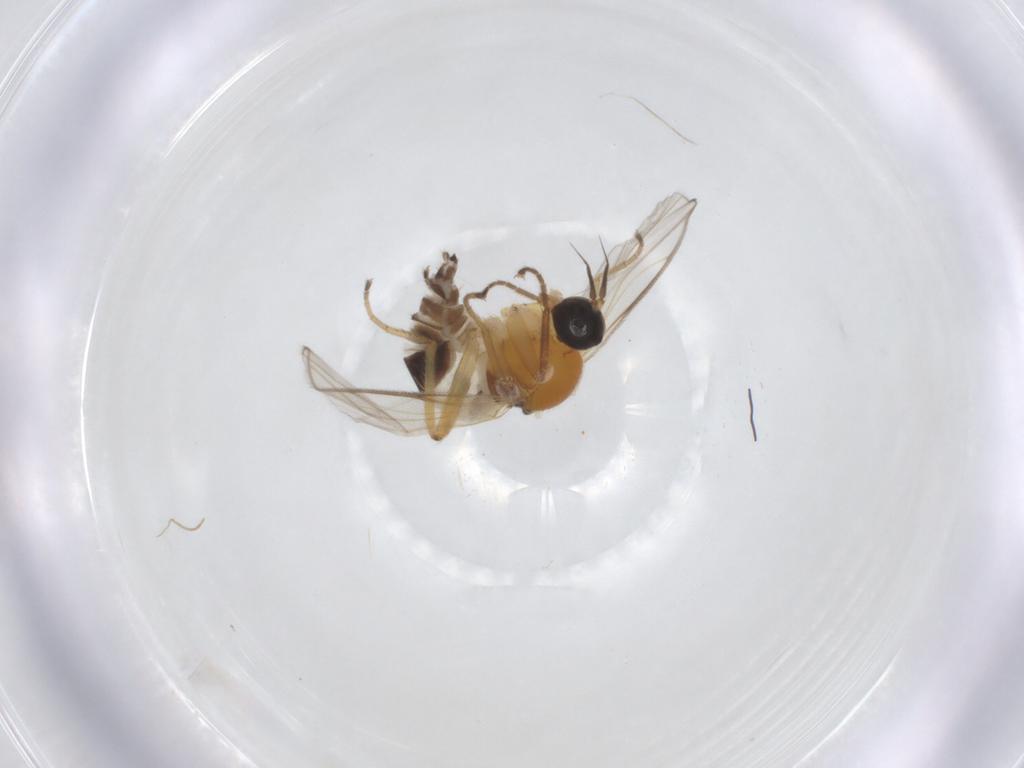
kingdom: Animalia
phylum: Arthropoda
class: Insecta
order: Diptera
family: Hybotidae
